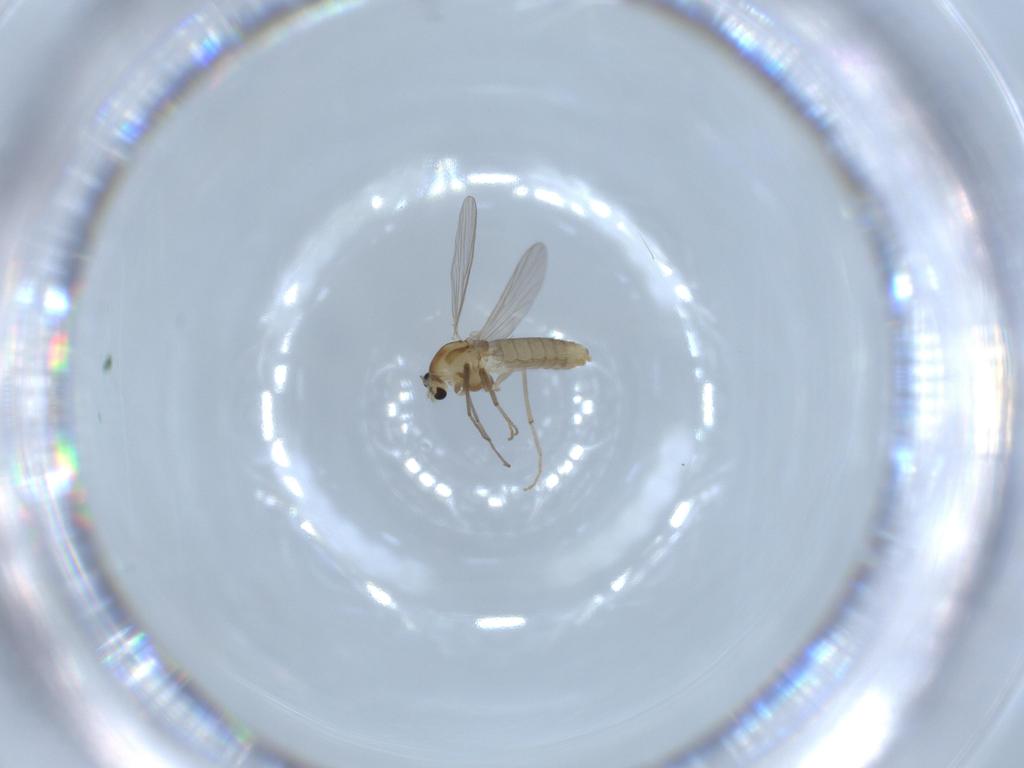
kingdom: Animalia
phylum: Arthropoda
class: Insecta
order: Diptera
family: Chironomidae
